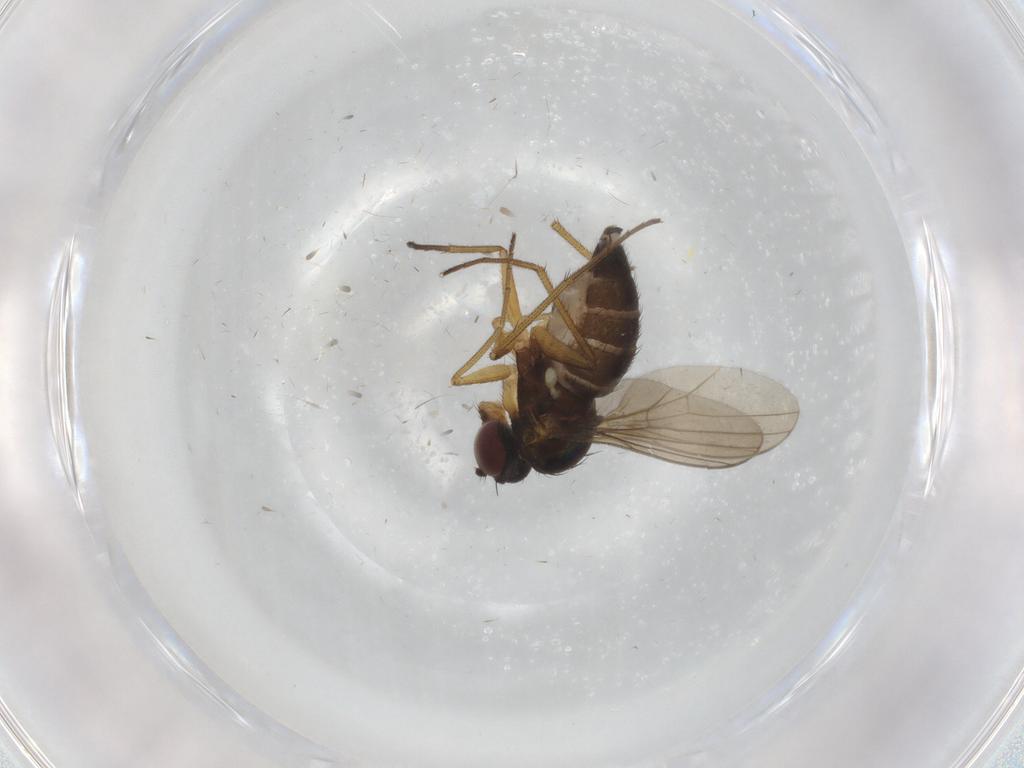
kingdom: Animalia
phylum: Arthropoda
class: Insecta
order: Diptera
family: Dolichopodidae
